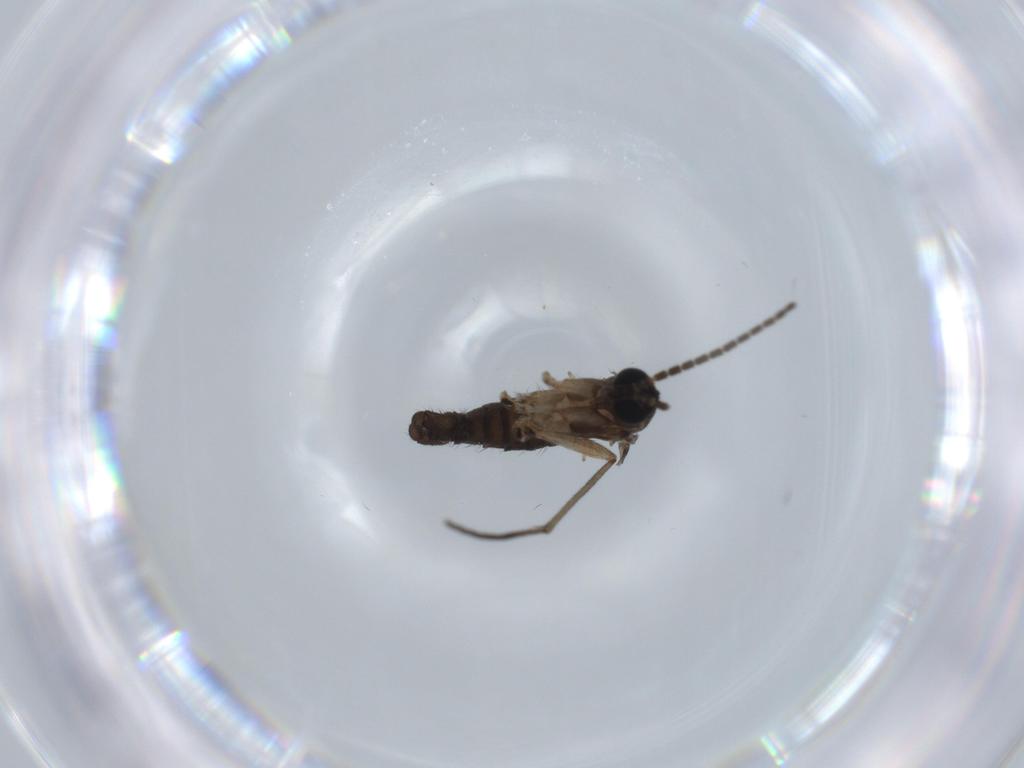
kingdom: Animalia
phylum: Arthropoda
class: Insecta
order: Diptera
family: Sciaridae
